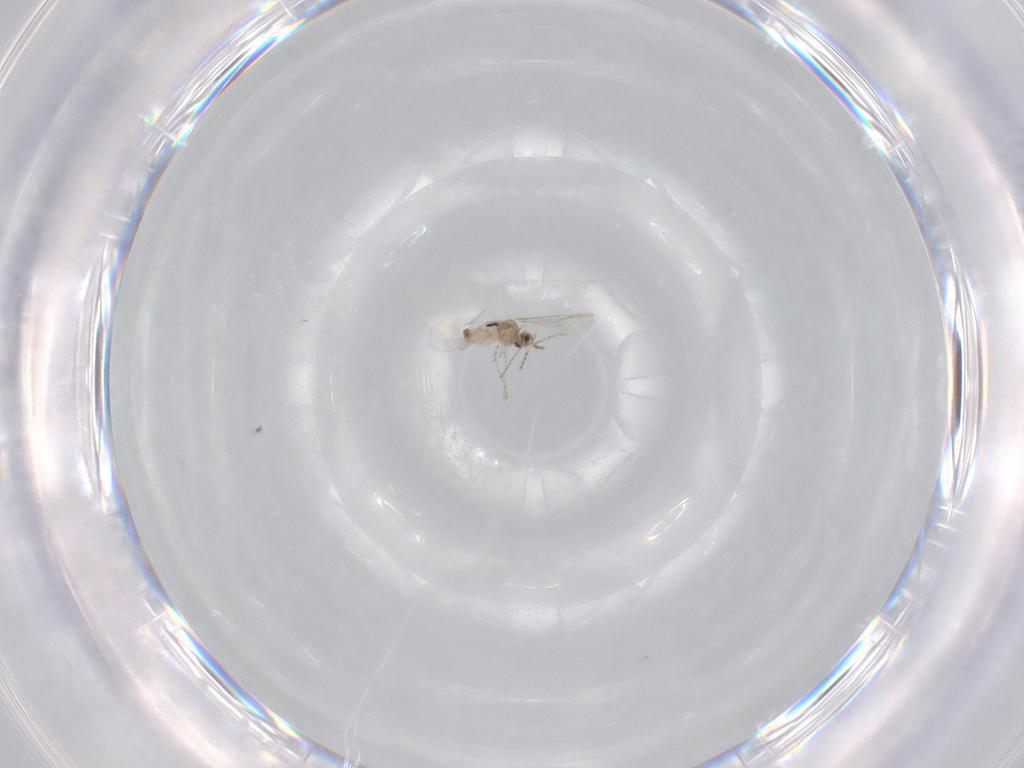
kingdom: Animalia
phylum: Arthropoda
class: Insecta
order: Diptera
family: Cecidomyiidae
